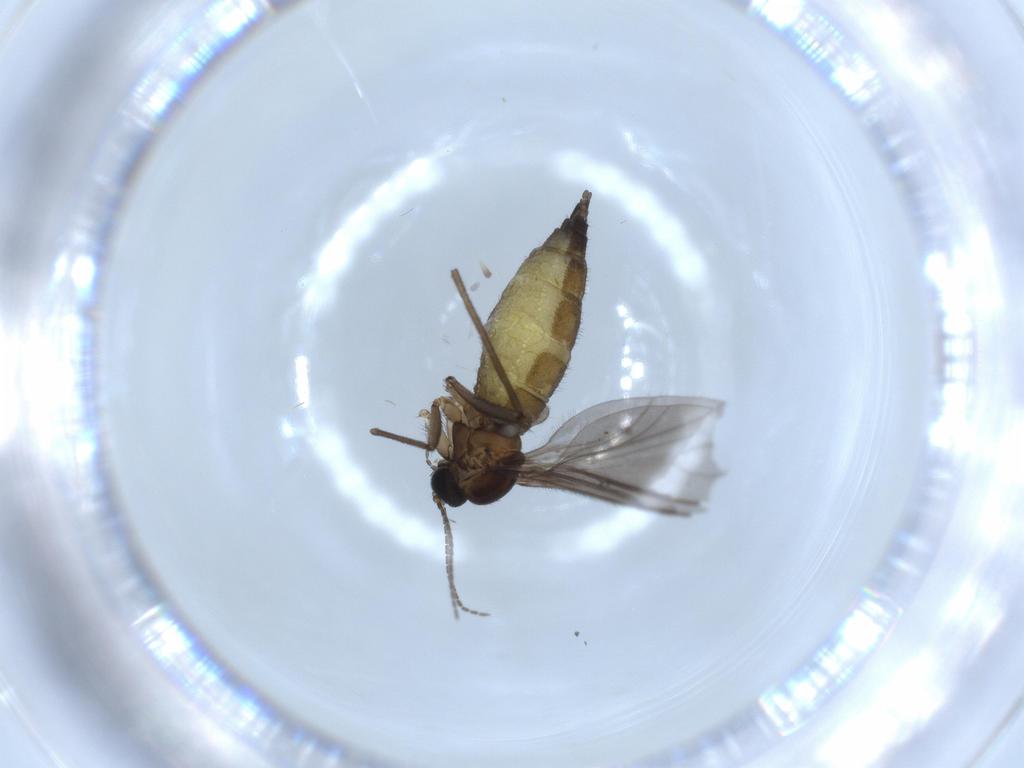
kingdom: Animalia
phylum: Arthropoda
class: Insecta
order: Diptera
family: Sciaridae
